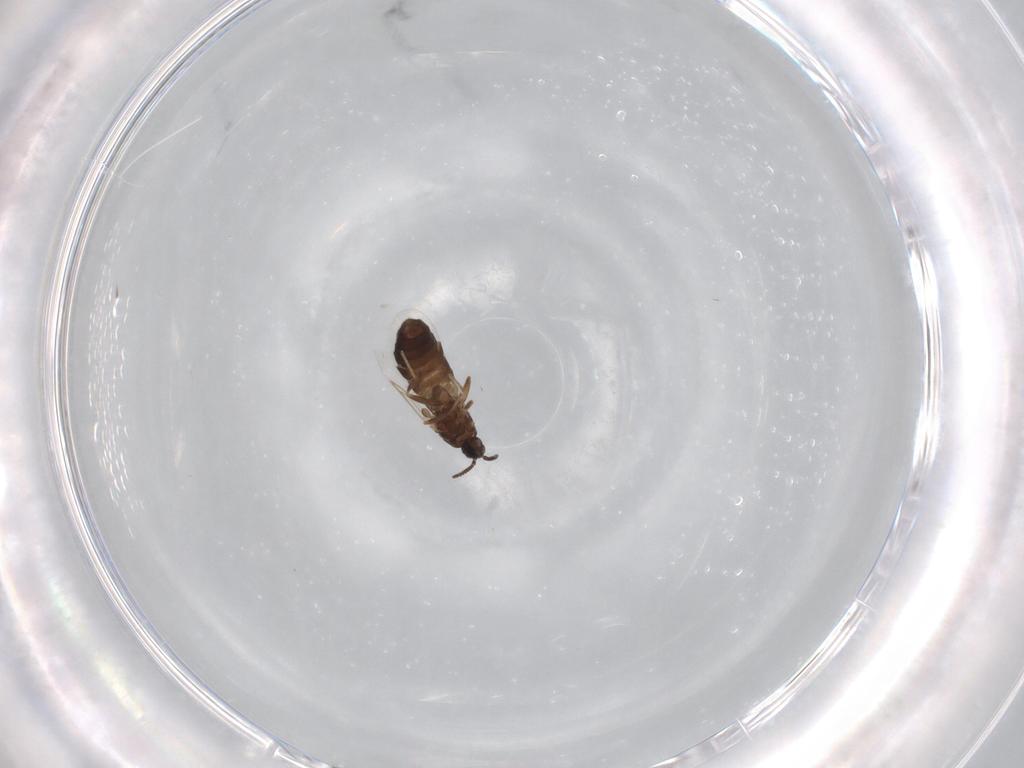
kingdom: Animalia
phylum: Arthropoda
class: Insecta
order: Diptera
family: Scatopsidae
